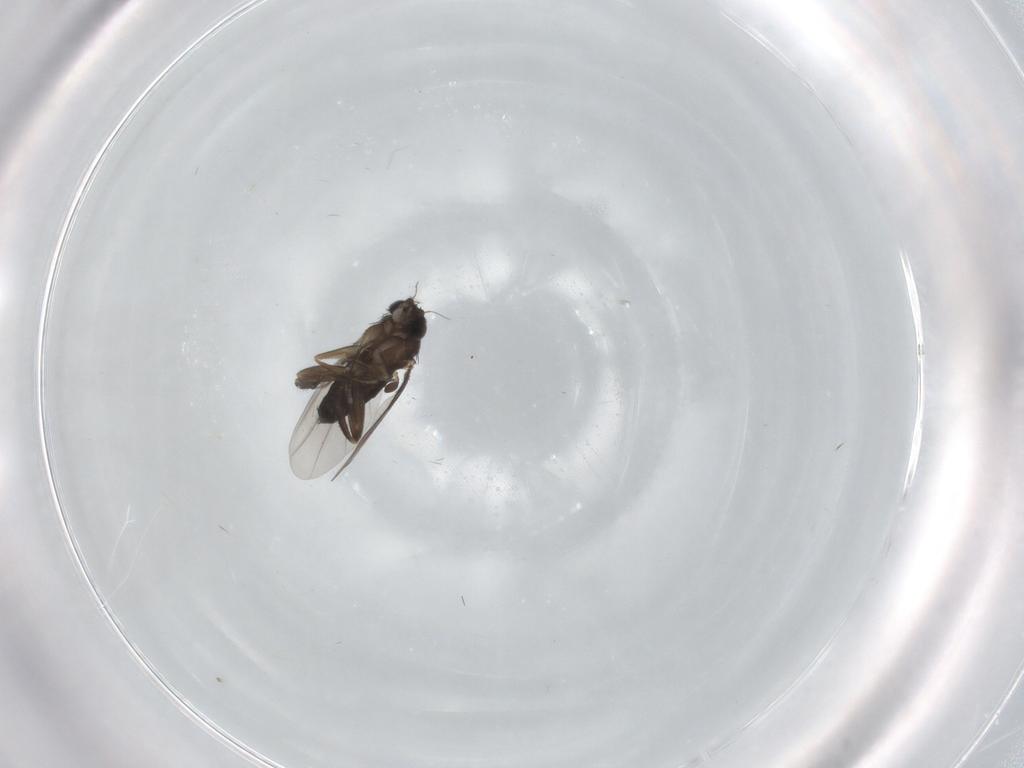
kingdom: Animalia
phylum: Arthropoda
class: Insecta
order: Diptera
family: Phoridae
